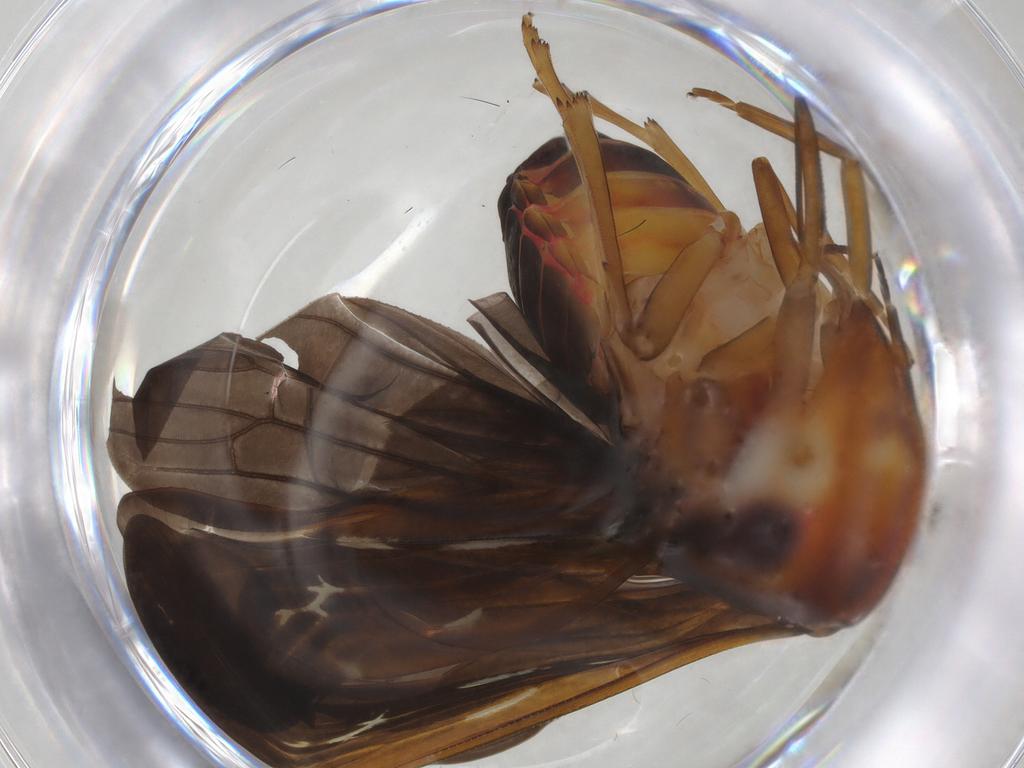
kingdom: Animalia
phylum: Arthropoda
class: Insecta
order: Hemiptera
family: Achilidae
